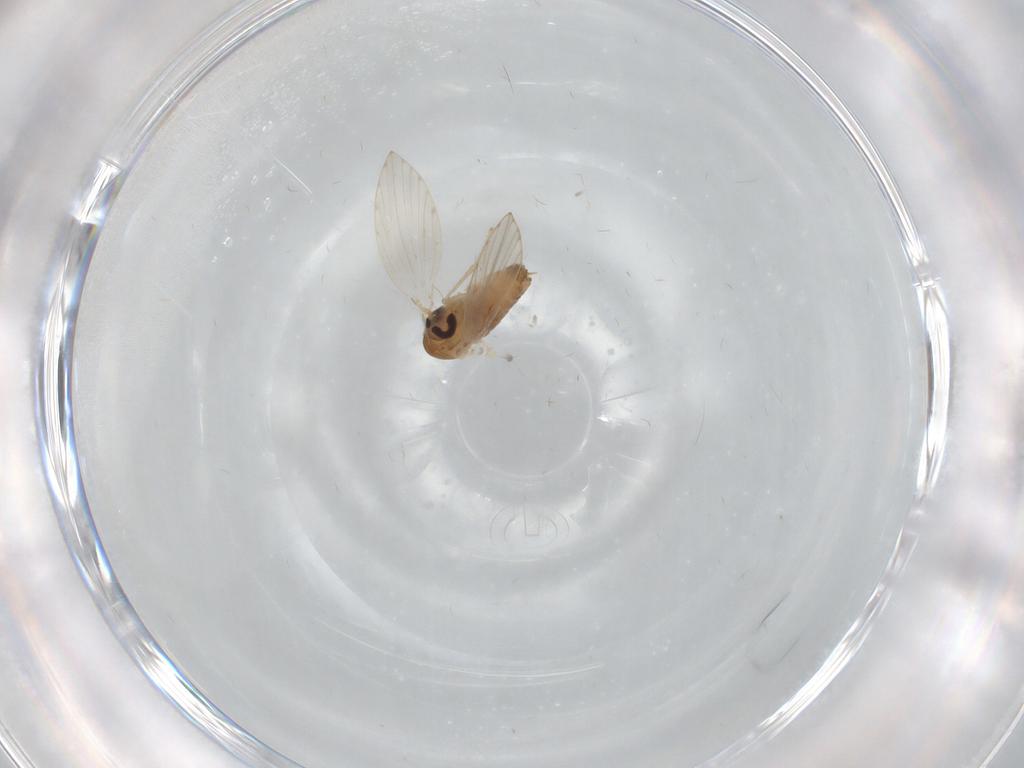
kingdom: Animalia
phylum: Arthropoda
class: Insecta
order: Diptera
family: Psychodidae
